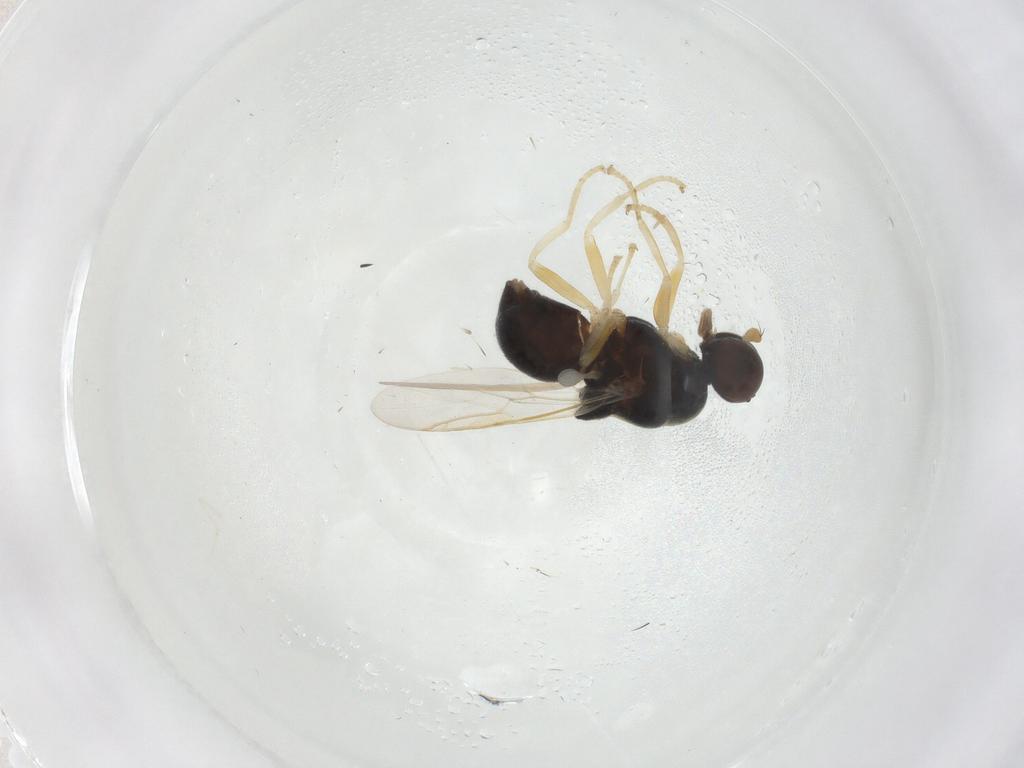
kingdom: Animalia
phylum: Arthropoda
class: Insecta
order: Diptera
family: Stratiomyidae
